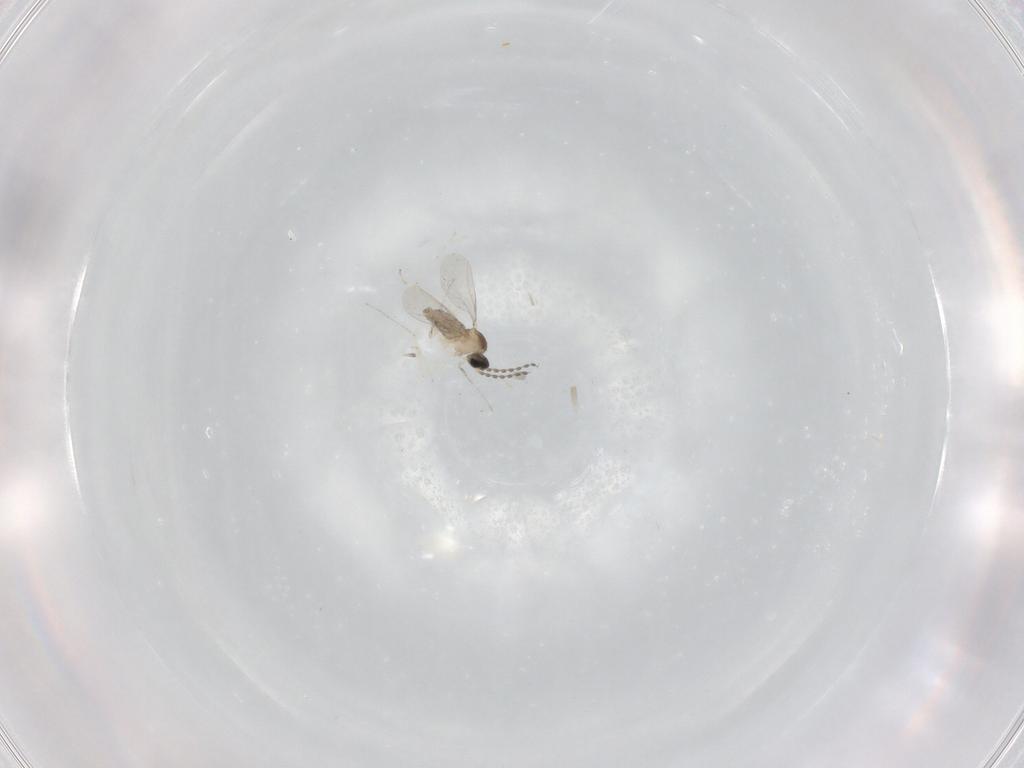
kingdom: Animalia
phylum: Arthropoda
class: Insecta
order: Diptera
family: Cecidomyiidae
